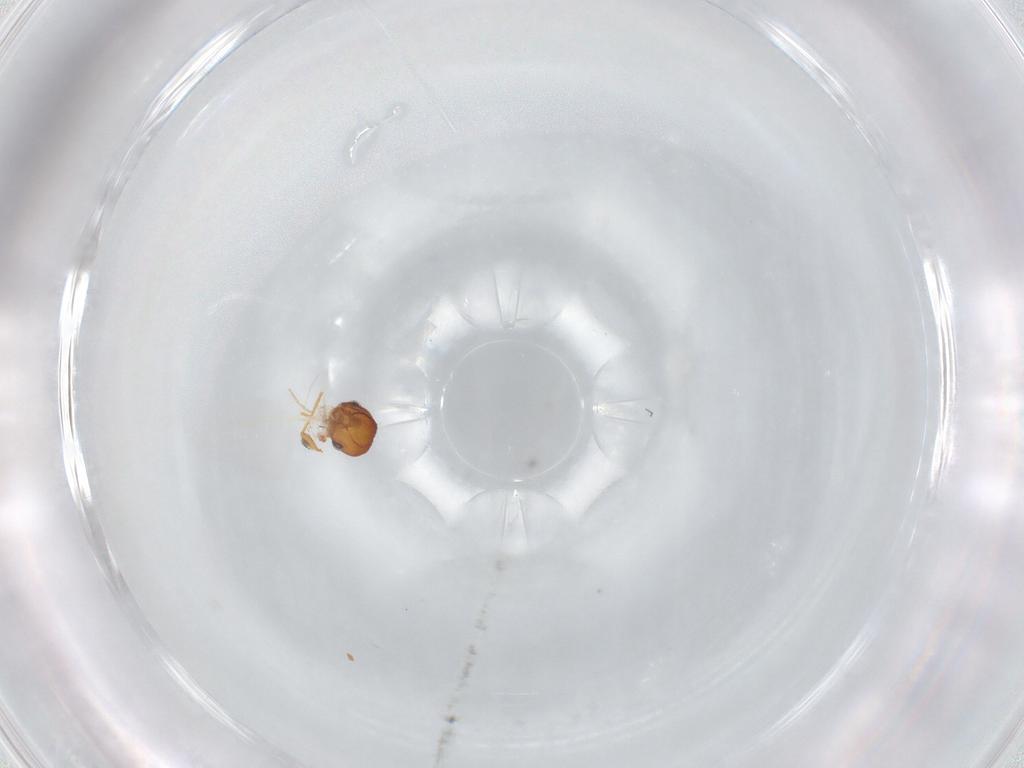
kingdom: Animalia
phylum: Arthropoda
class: Insecta
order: Diptera
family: Chironomidae
